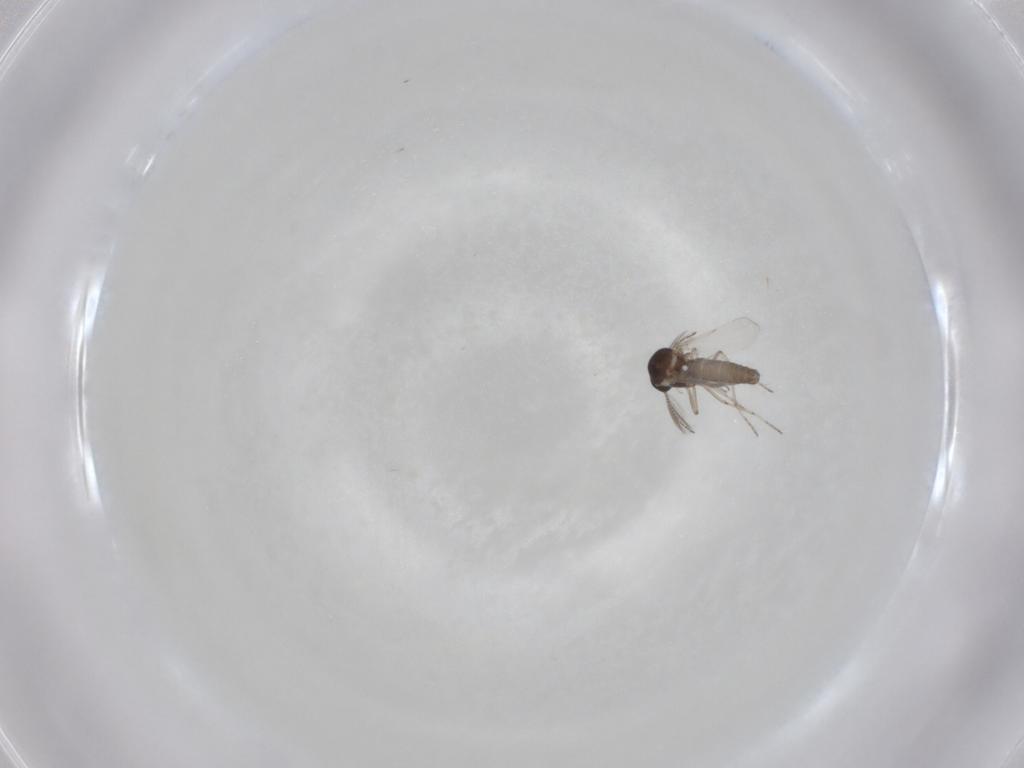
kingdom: Animalia
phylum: Arthropoda
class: Insecta
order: Diptera
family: Ceratopogonidae
